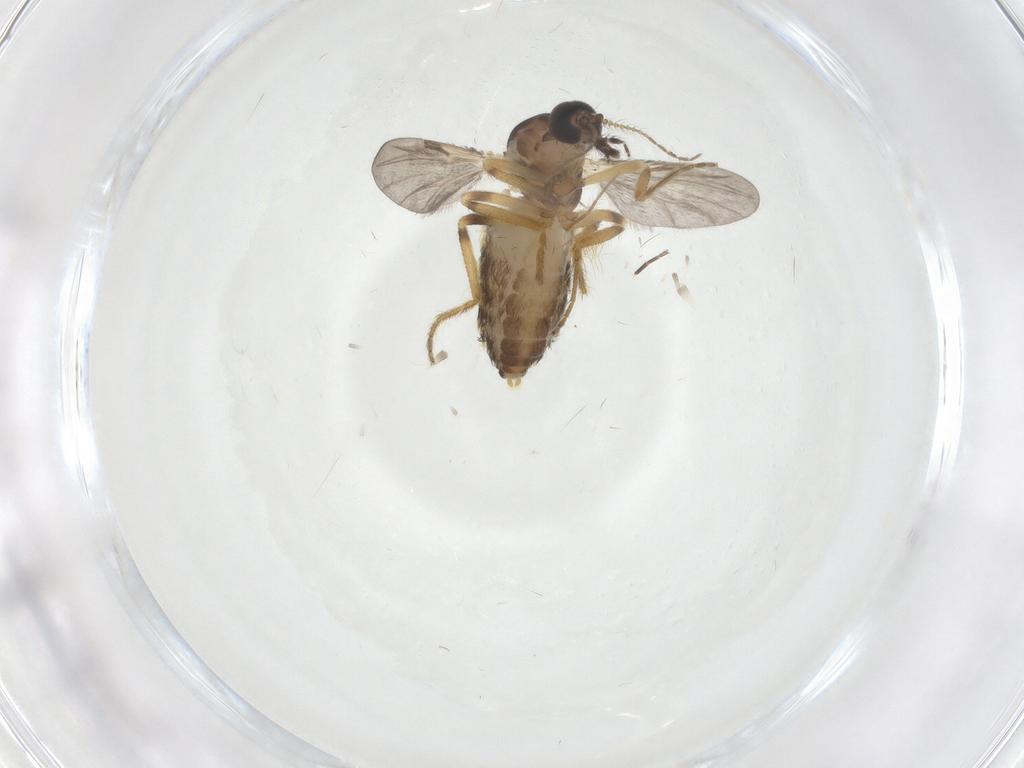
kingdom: Animalia
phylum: Arthropoda
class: Insecta
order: Diptera
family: Ceratopogonidae
